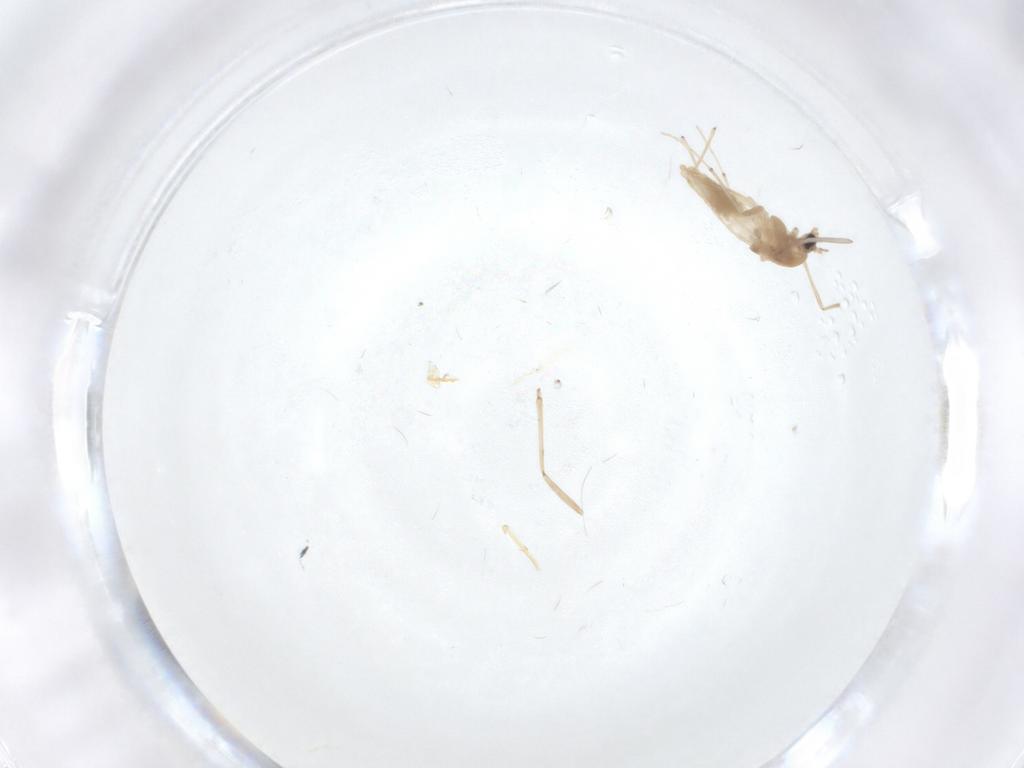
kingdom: Animalia
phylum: Arthropoda
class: Insecta
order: Diptera
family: Chironomidae
